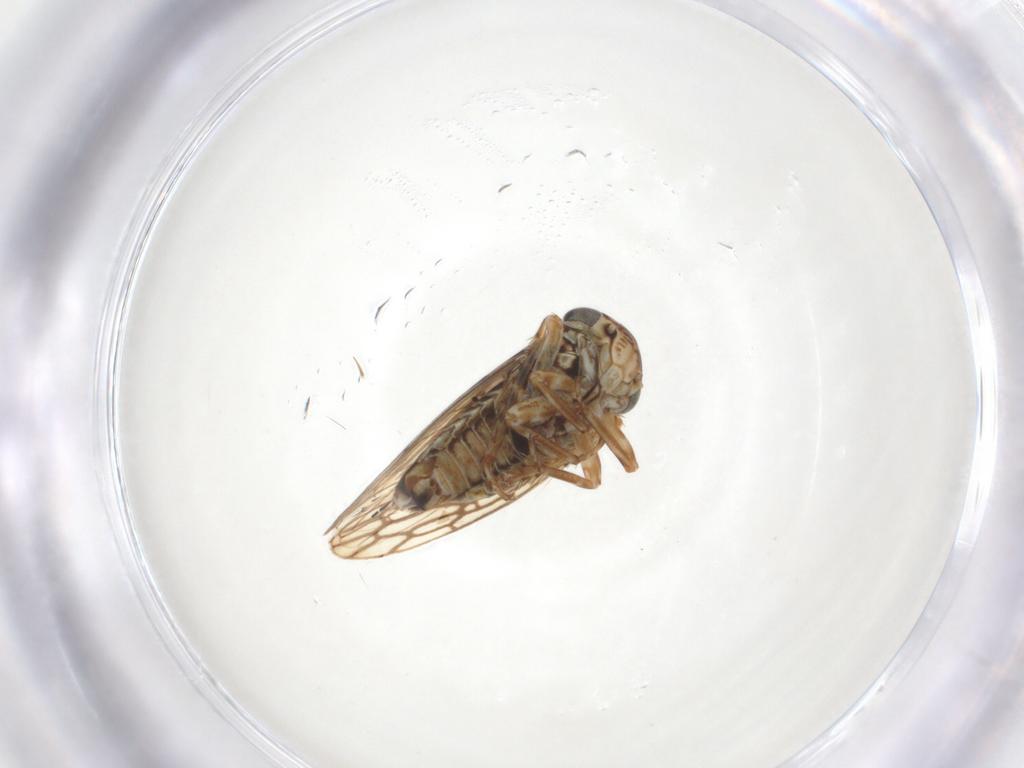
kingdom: Animalia
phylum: Arthropoda
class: Insecta
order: Hemiptera
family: Cicadellidae
